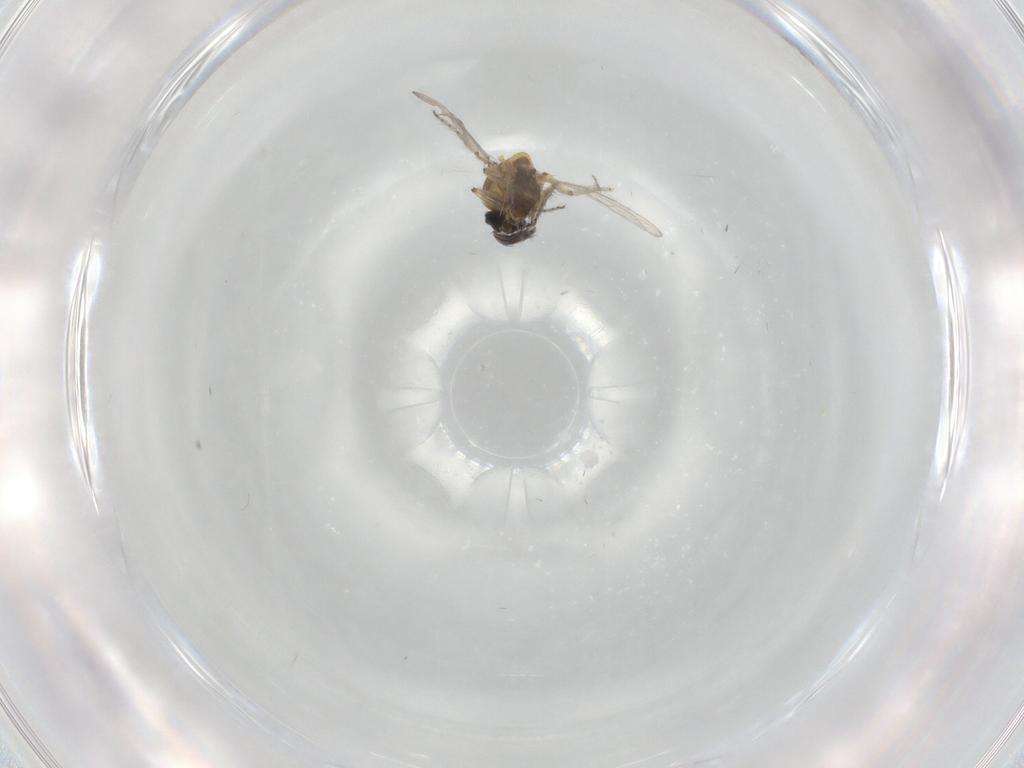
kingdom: Animalia
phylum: Arthropoda
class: Insecta
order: Diptera
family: Ceratopogonidae
